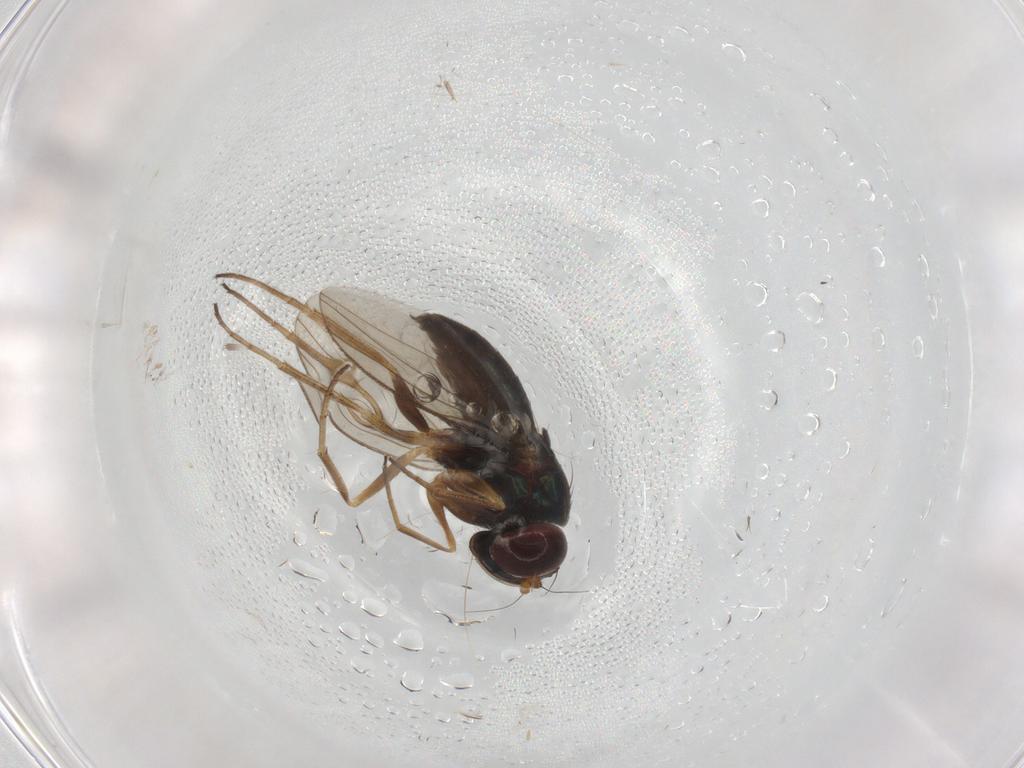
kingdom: Animalia
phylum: Arthropoda
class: Insecta
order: Diptera
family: Dolichopodidae
